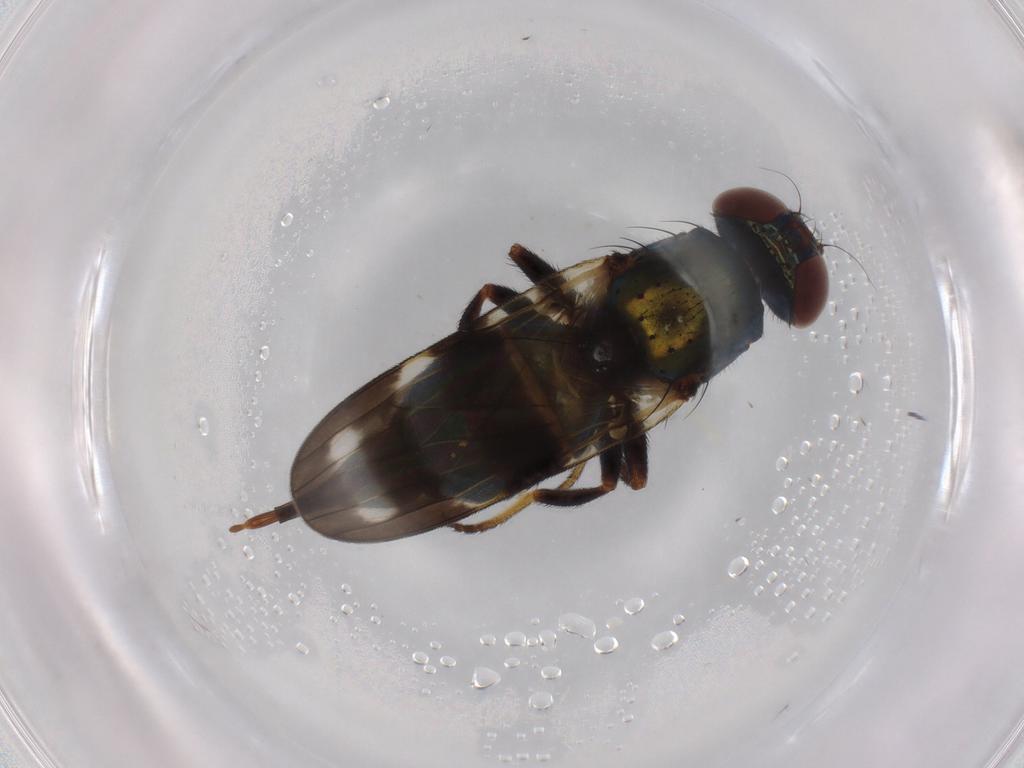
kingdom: Animalia
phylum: Arthropoda
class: Insecta
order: Diptera
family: Ulidiidae
